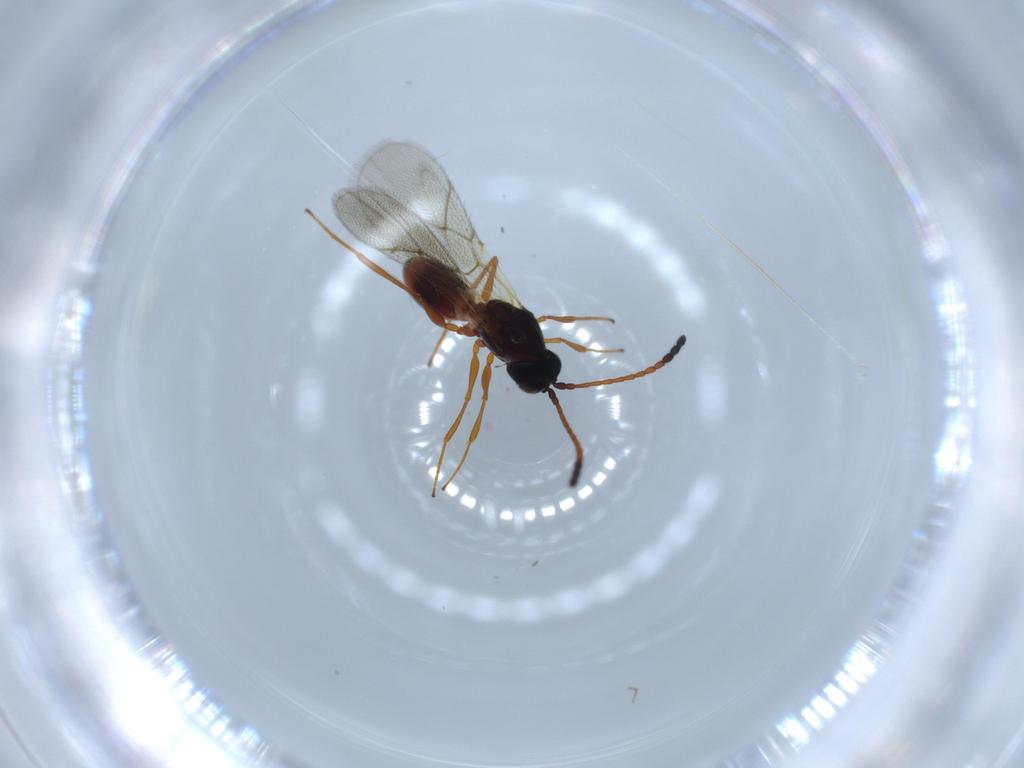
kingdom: Animalia
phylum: Arthropoda
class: Insecta
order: Hymenoptera
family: Figitidae
